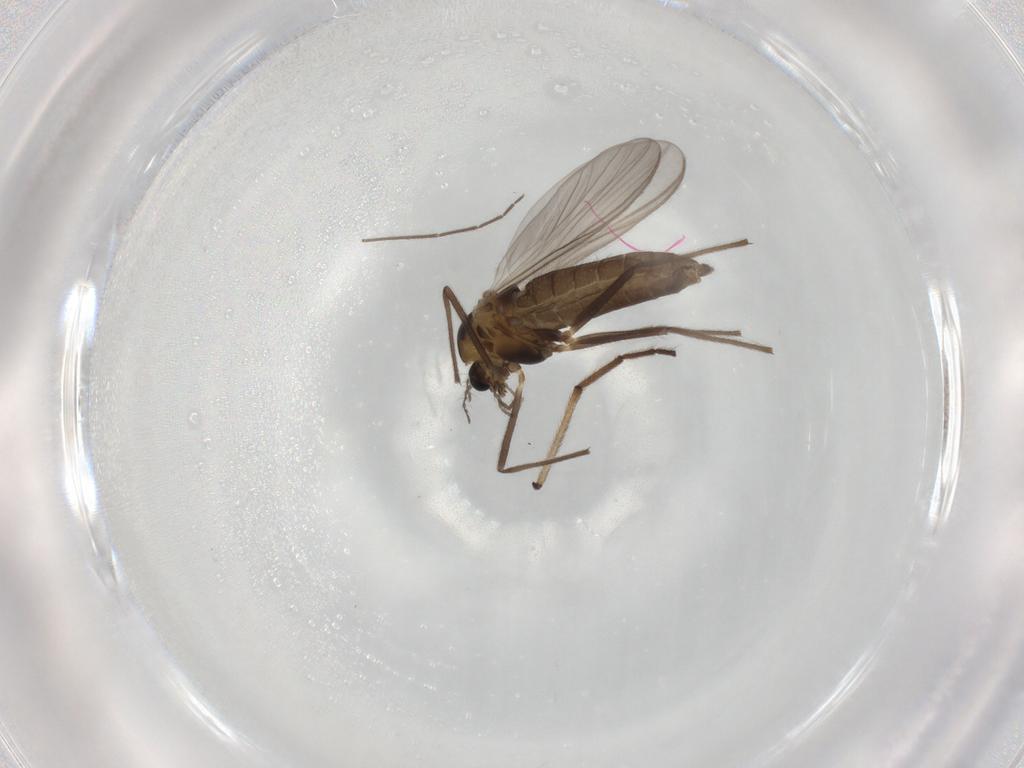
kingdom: Animalia
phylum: Arthropoda
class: Insecta
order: Diptera
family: Chironomidae
